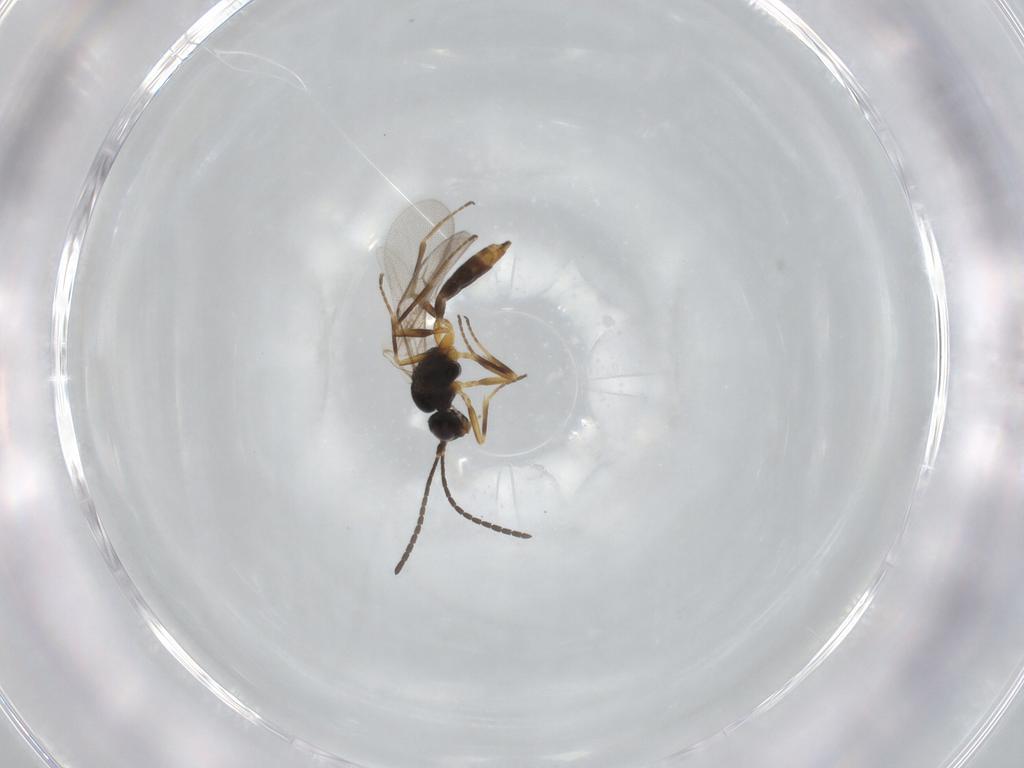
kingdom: Animalia
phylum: Arthropoda
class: Insecta
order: Hymenoptera
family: Braconidae
